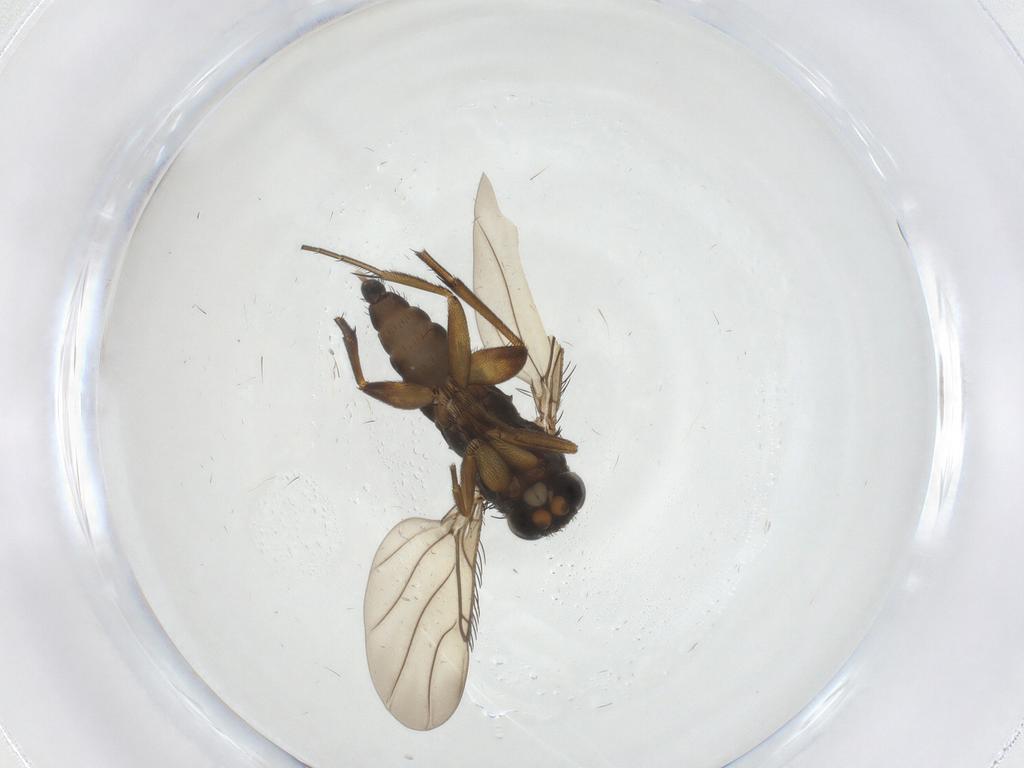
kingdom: Animalia
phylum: Arthropoda
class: Insecta
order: Diptera
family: Phoridae
